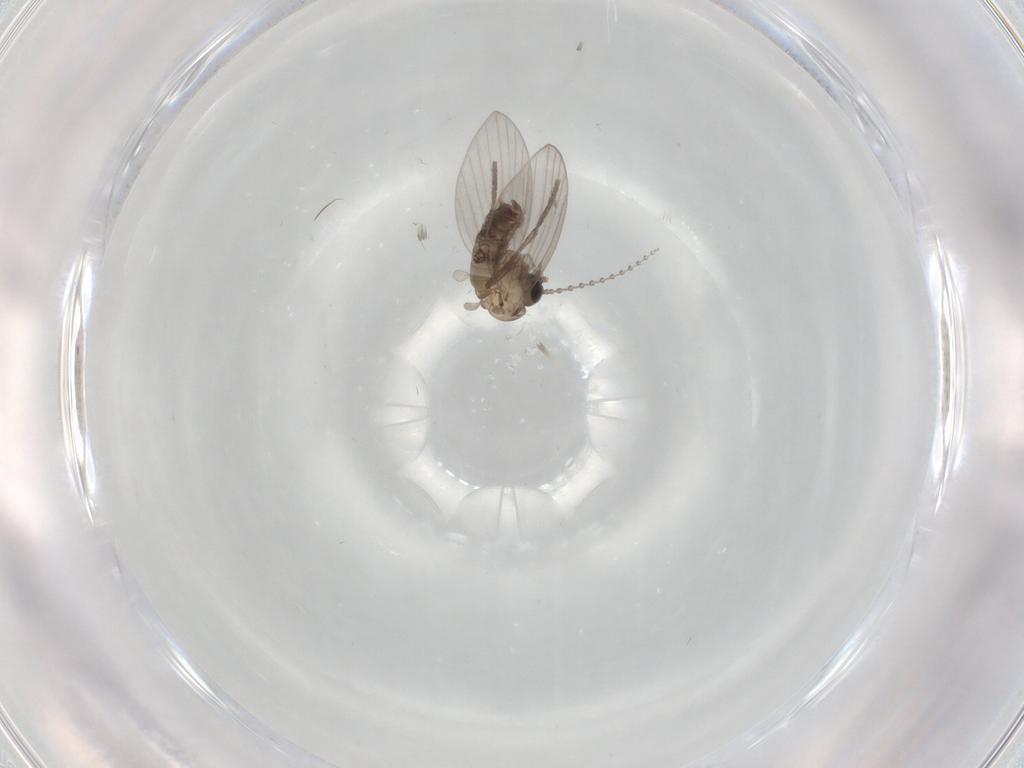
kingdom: Animalia
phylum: Arthropoda
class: Insecta
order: Diptera
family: Psychodidae
